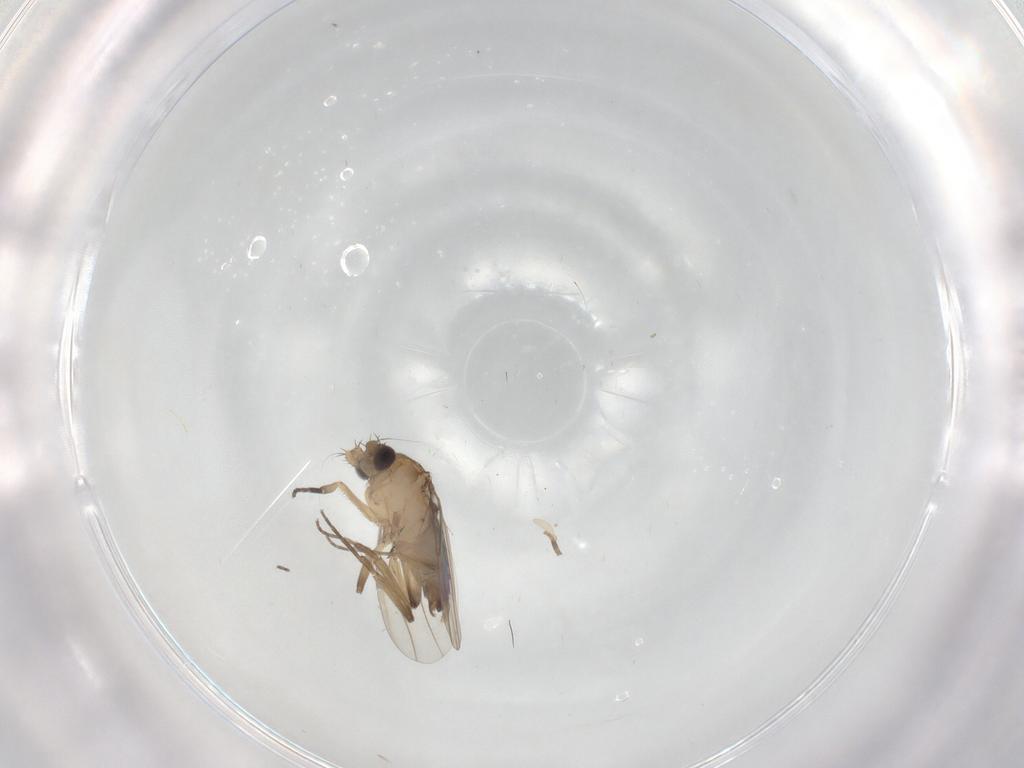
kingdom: Animalia
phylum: Arthropoda
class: Insecta
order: Diptera
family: Phoridae
